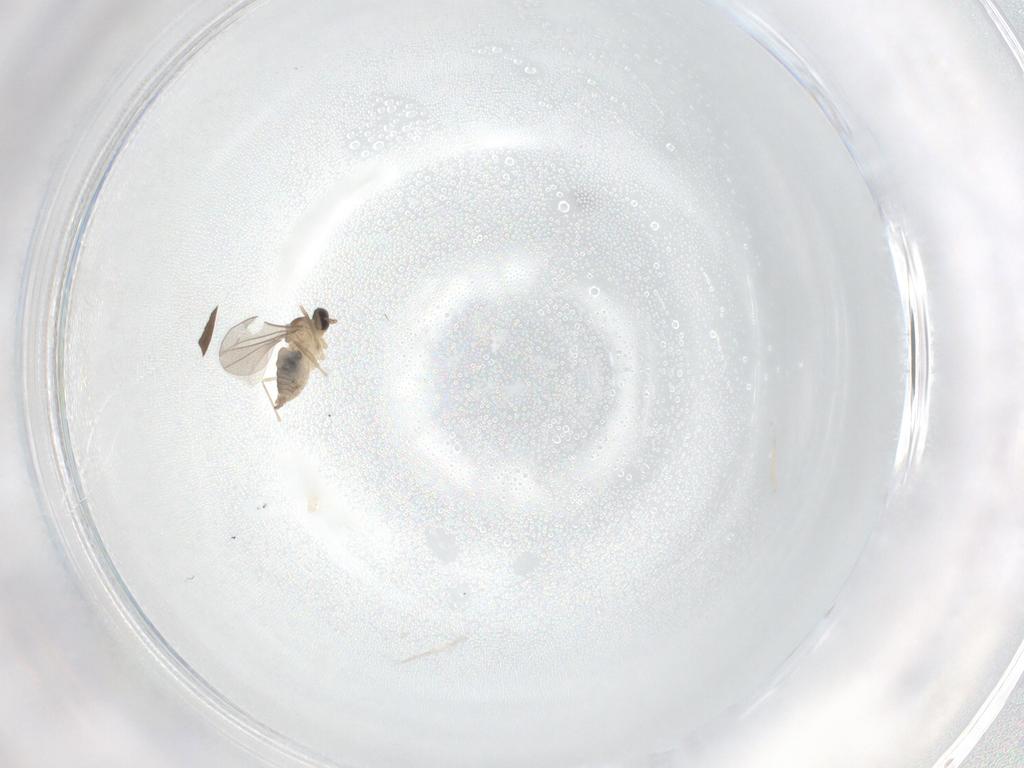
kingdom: Animalia
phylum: Arthropoda
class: Insecta
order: Diptera
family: Cecidomyiidae
